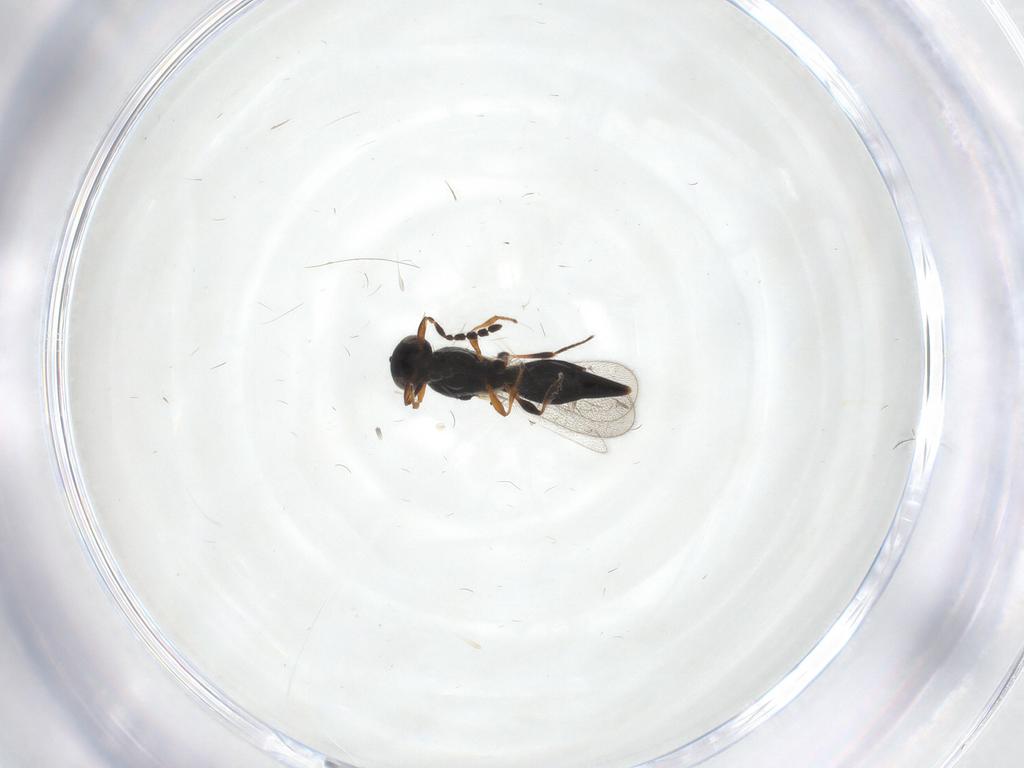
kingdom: Animalia
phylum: Arthropoda
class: Insecta
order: Hymenoptera
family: Platygastridae
